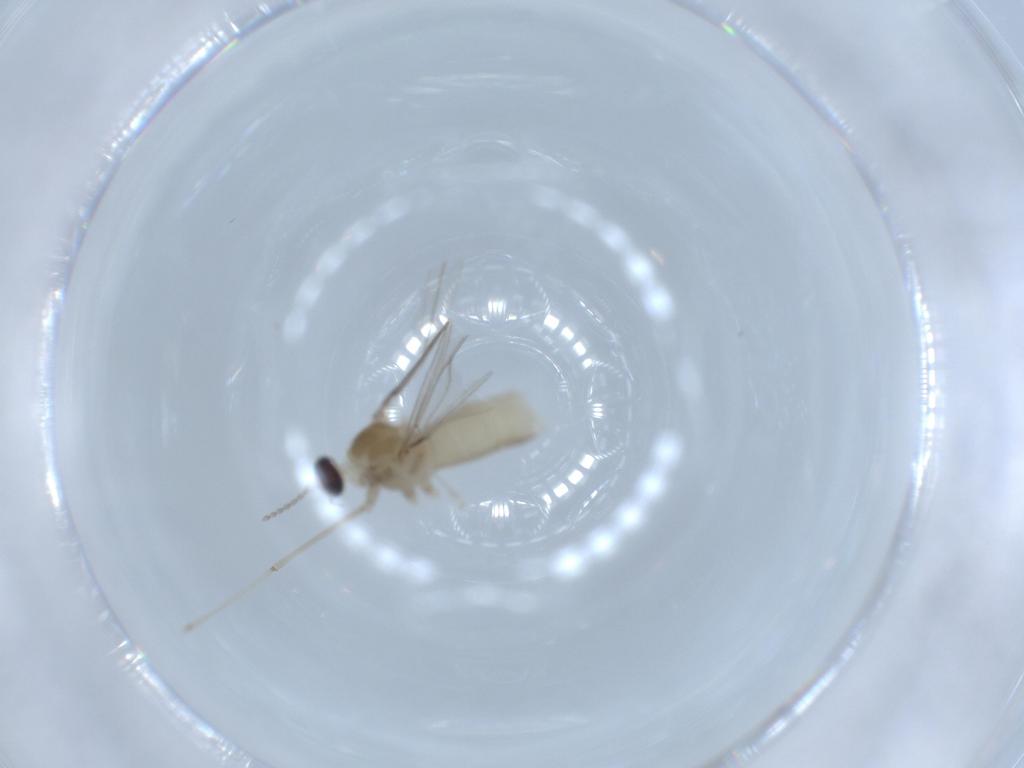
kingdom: Animalia
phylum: Arthropoda
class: Insecta
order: Diptera
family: Cecidomyiidae
